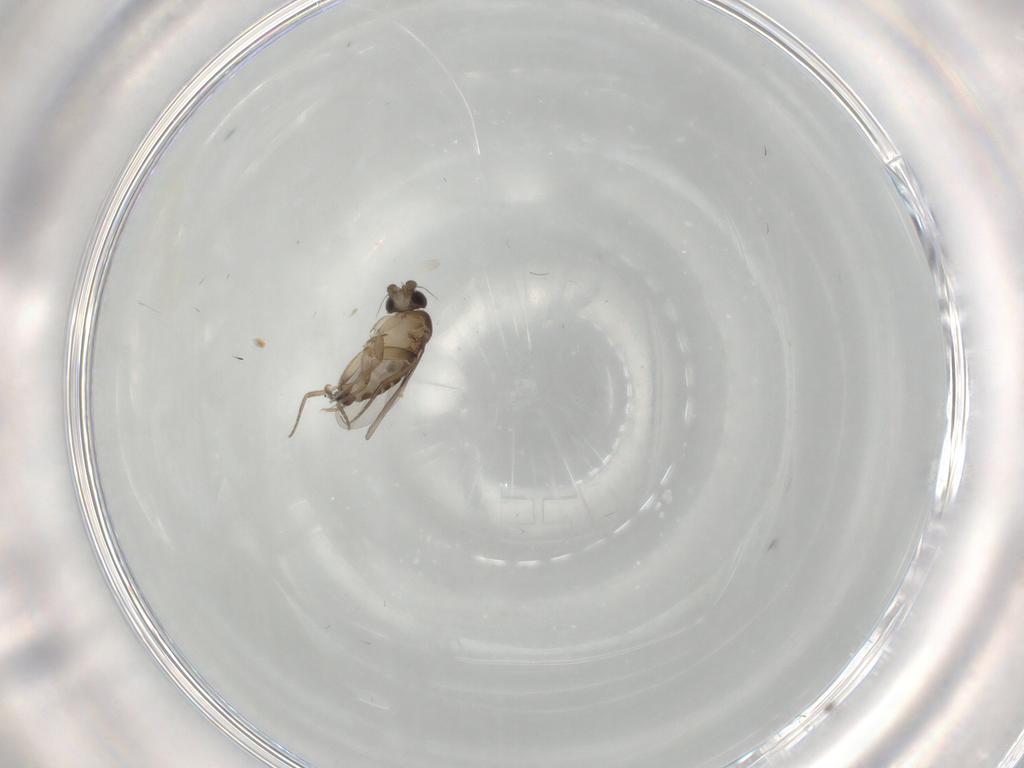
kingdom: Animalia
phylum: Arthropoda
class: Insecta
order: Diptera
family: Phoridae
